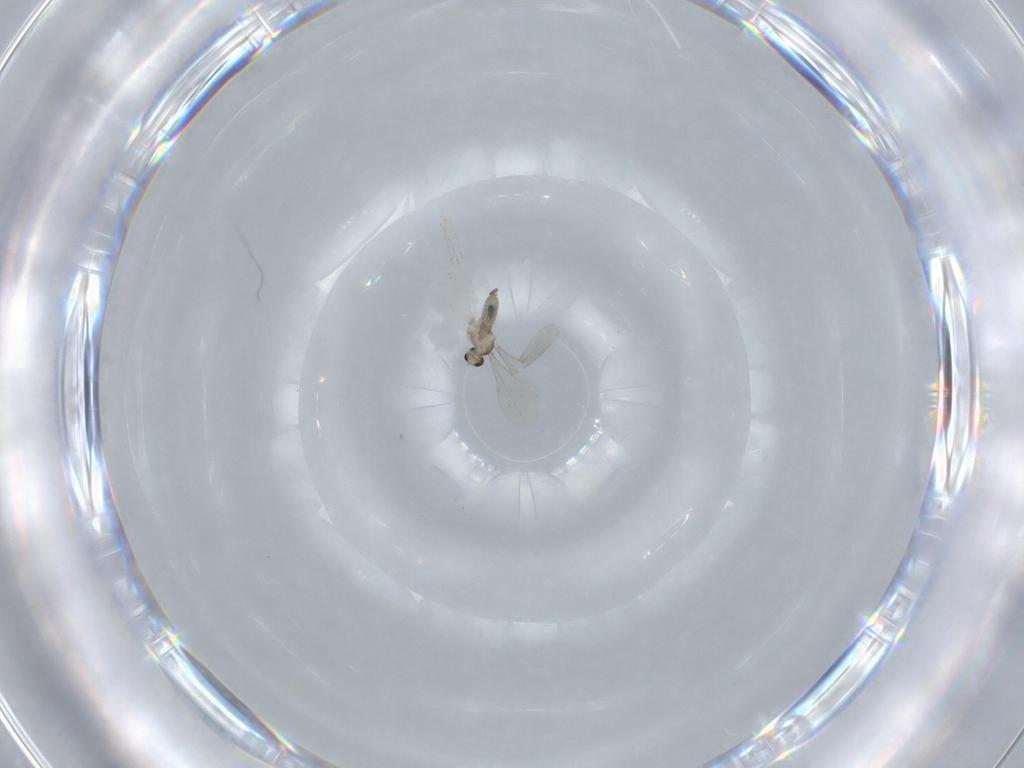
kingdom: Animalia
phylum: Arthropoda
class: Insecta
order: Diptera
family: Sciaridae
